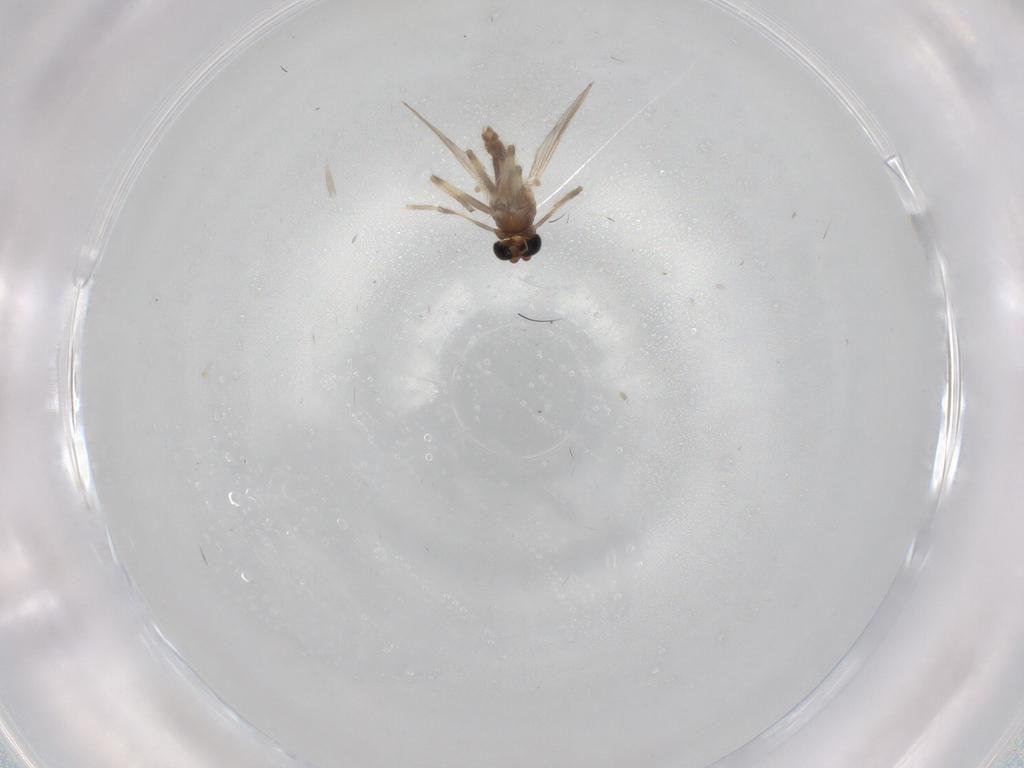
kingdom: Animalia
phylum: Arthropoda
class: Insecta
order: Diptera
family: Chironomidae
